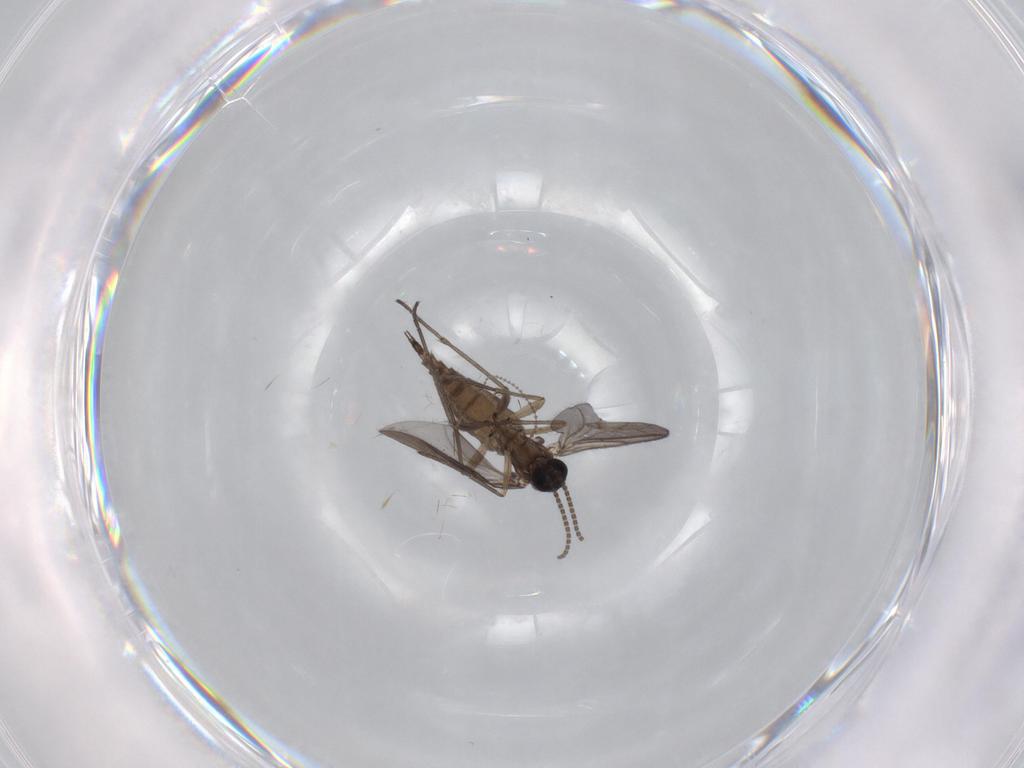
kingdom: Animalia
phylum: Arthropoda
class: Insecta
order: Diptera
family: Sciaridae
